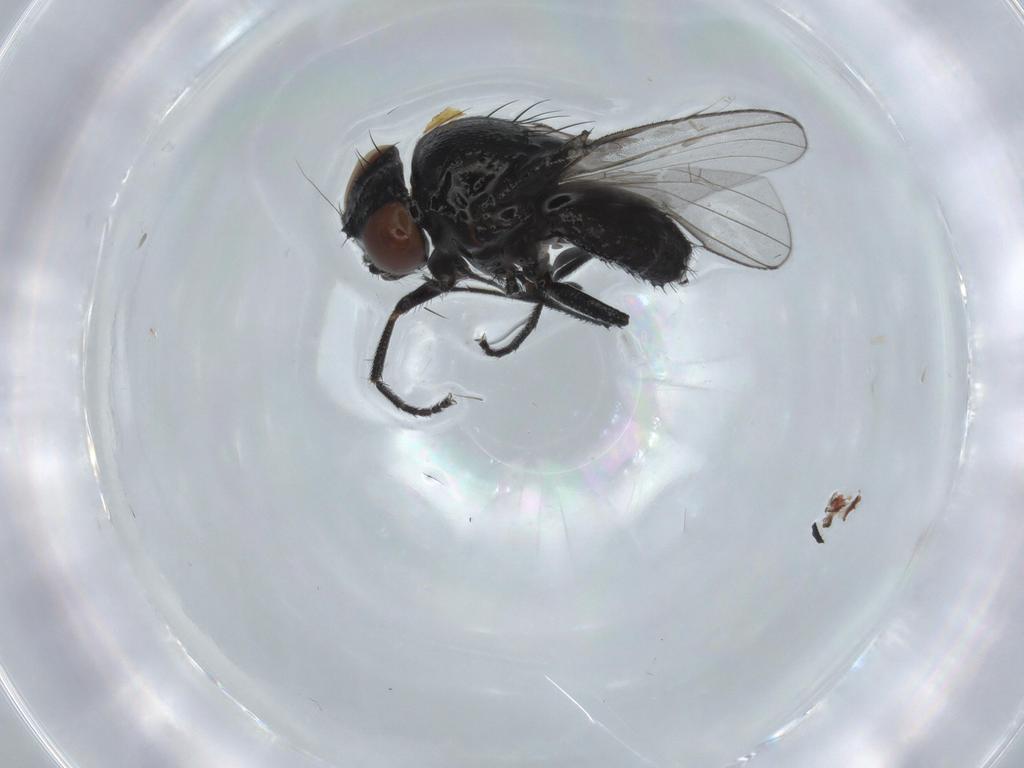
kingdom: Animalia
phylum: Arthropoda
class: Insecta
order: Diptera
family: Milichiidae
